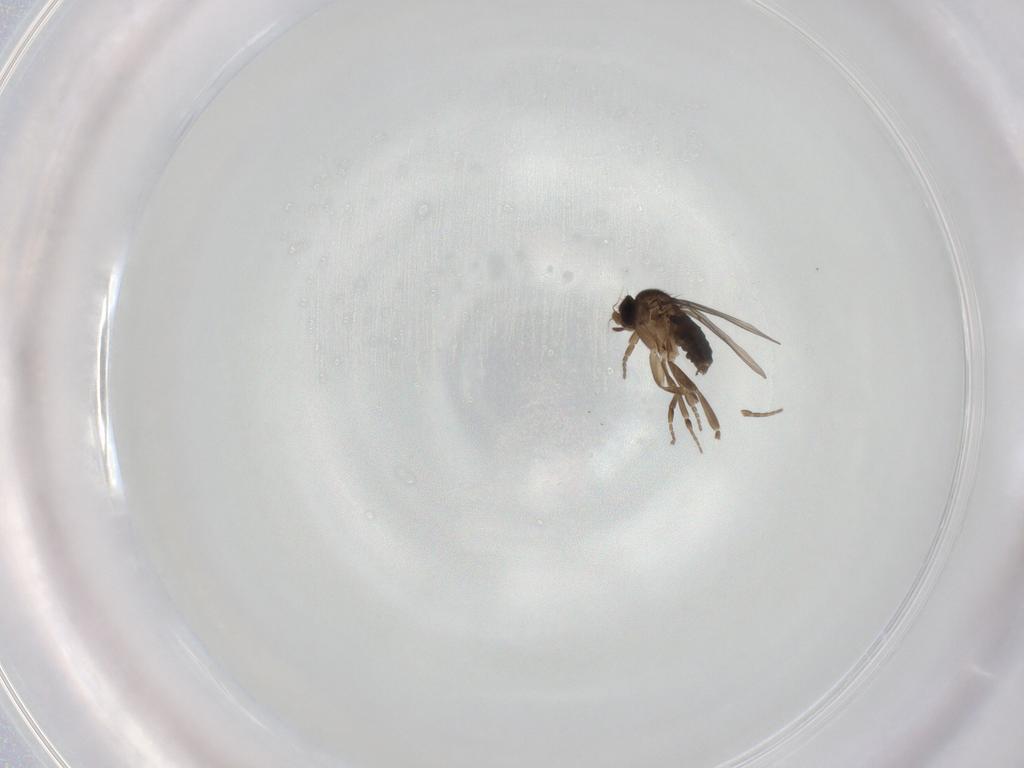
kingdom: Animalia
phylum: Arthropoda
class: Insecta
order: Diptera
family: Phoridae
